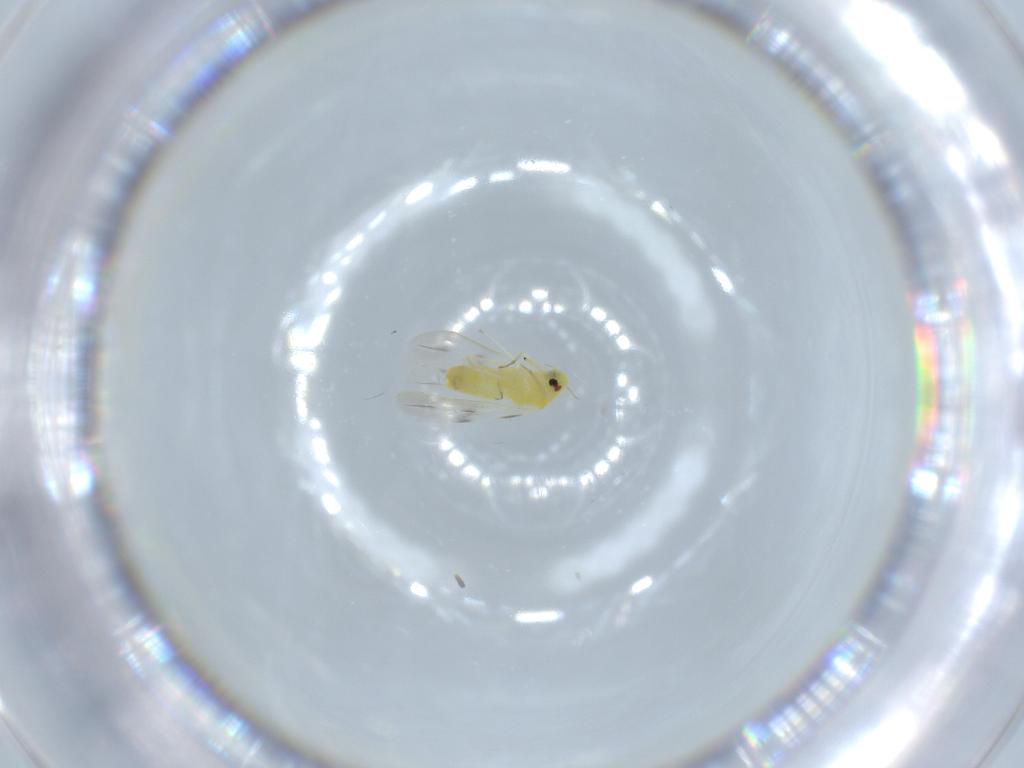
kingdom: Animalia
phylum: Arthropoda
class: Insecta
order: Hemiptera
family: Aleyrodidae
